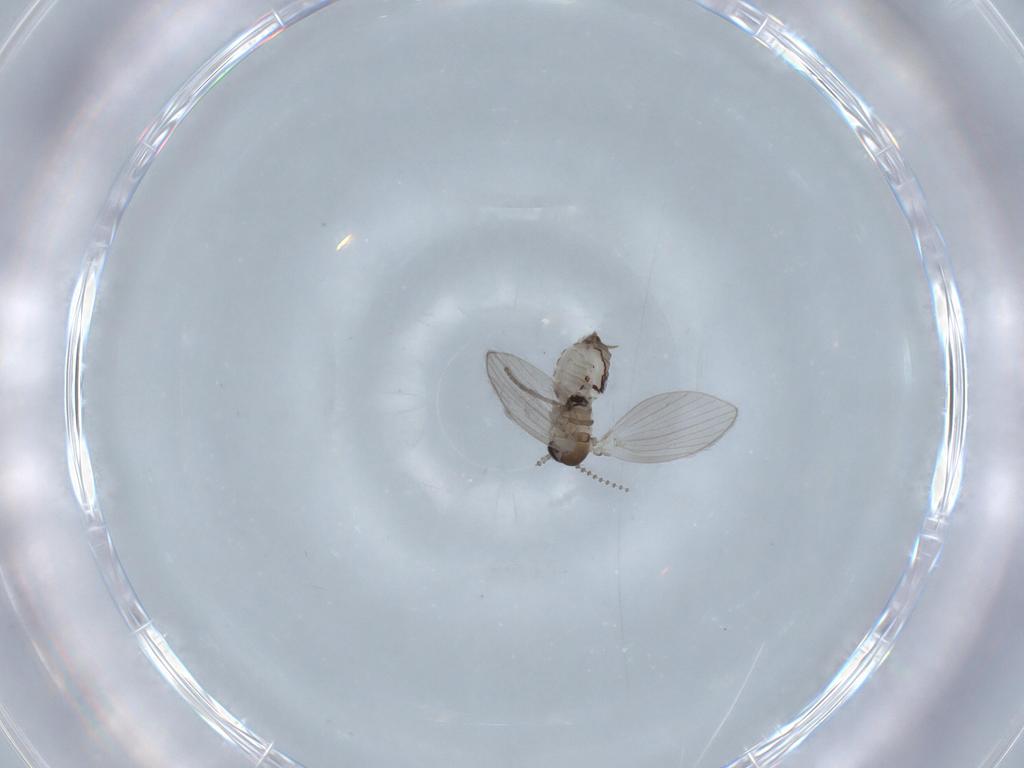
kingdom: Animalia
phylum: Arthropoda
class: Insecta
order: Diptera
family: Psychodidae
